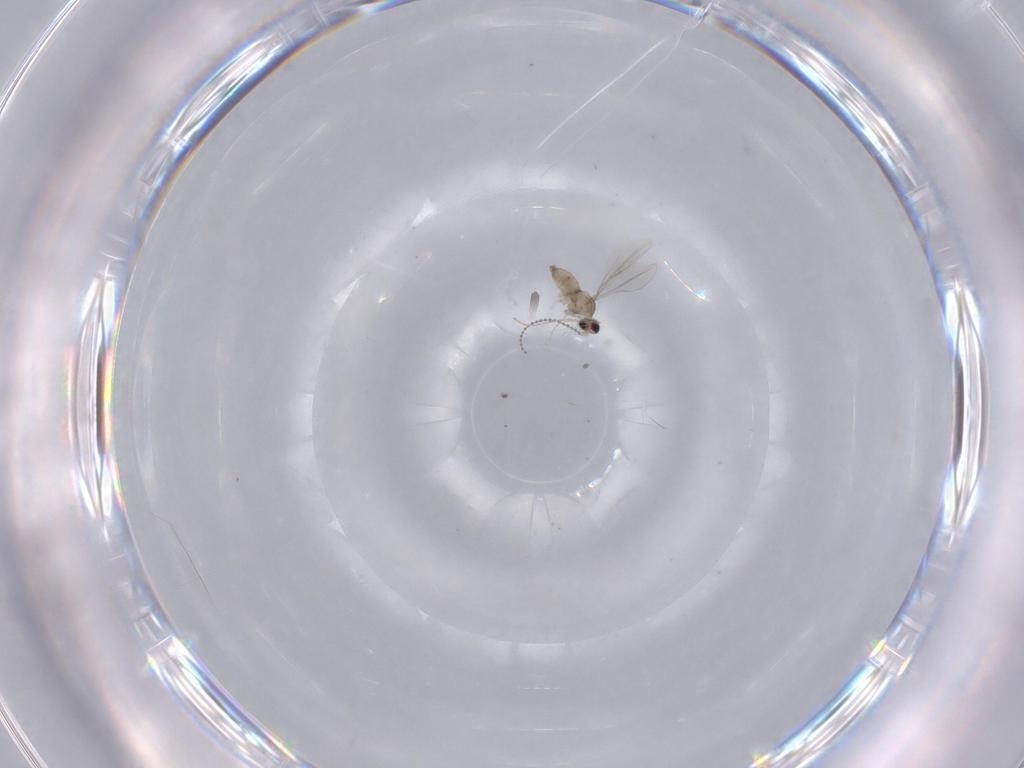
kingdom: Animalia
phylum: Arthropoda
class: Insecta
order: Diptera
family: Cecidomyiidae
